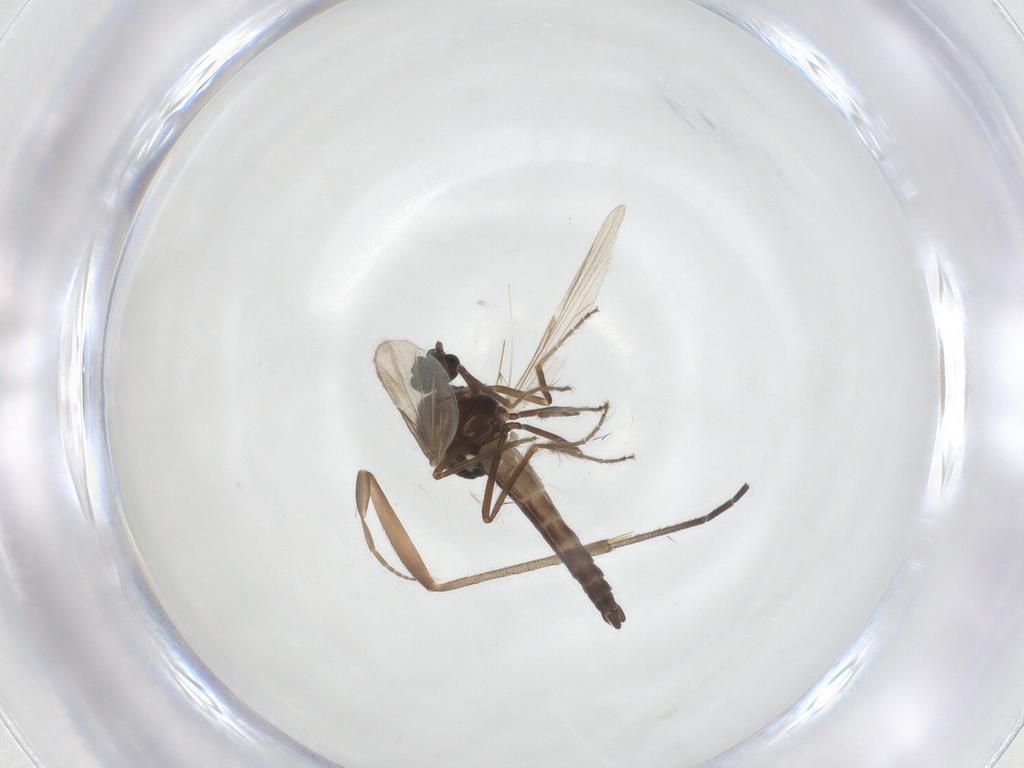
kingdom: Animalia
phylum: Arthropoda
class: Insecta
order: Diptera
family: Ceratopogonidae
